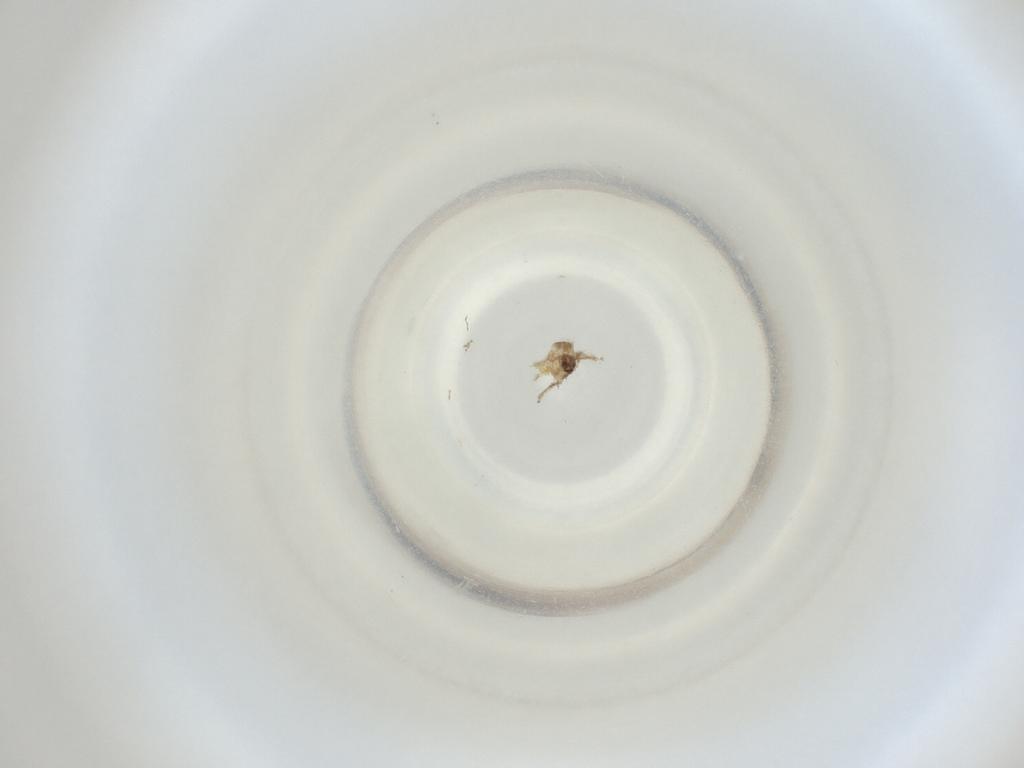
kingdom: Animalia
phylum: Arthropoda
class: Insecta
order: Diptera
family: Cecidomyiidae
